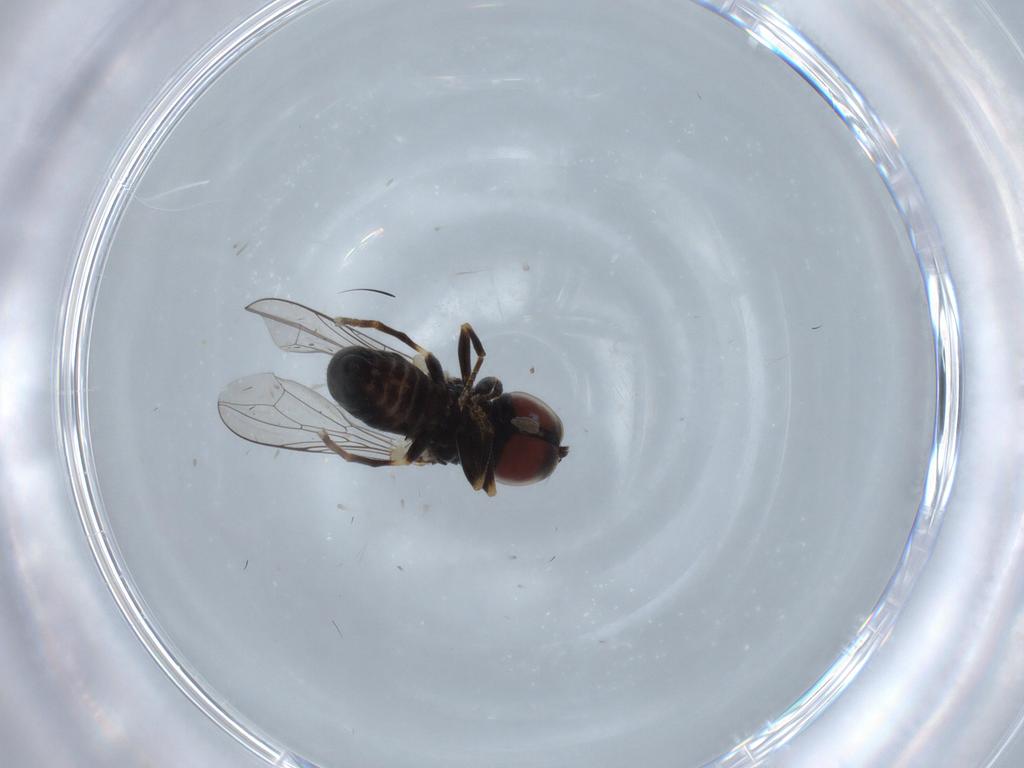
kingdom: Animalia
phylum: Arthropoda
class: Insecta
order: Diptera
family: Pipunculidae
